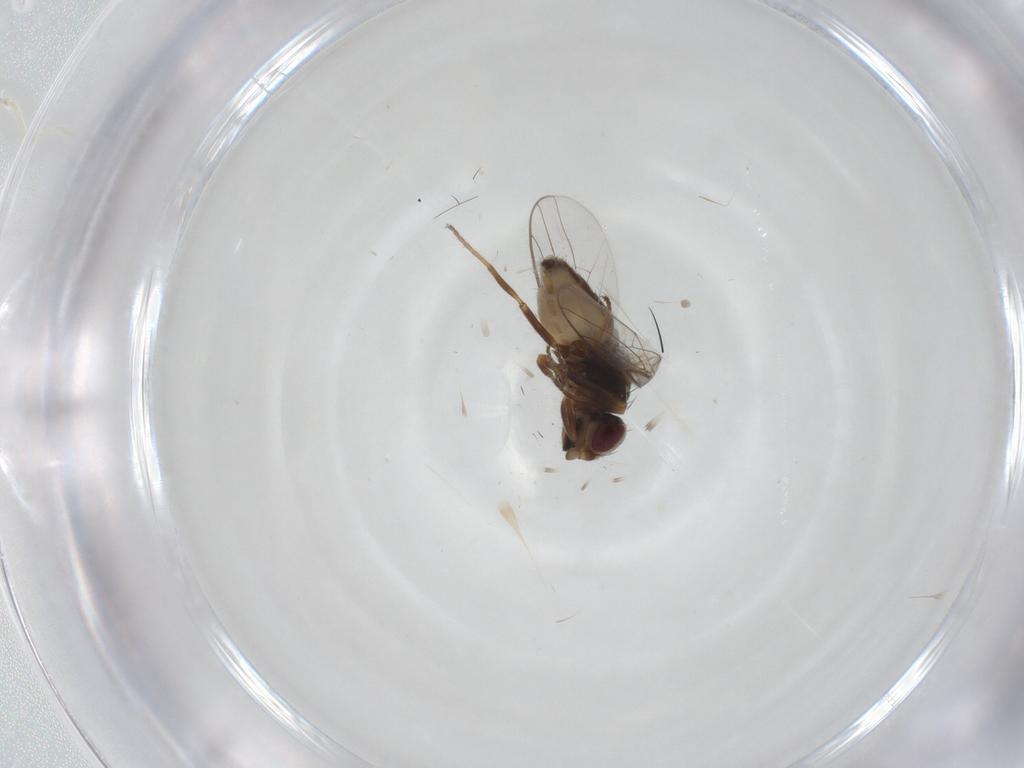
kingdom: Animalia
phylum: Arthropoda
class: Insecta
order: Diptera
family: Chloropidae
